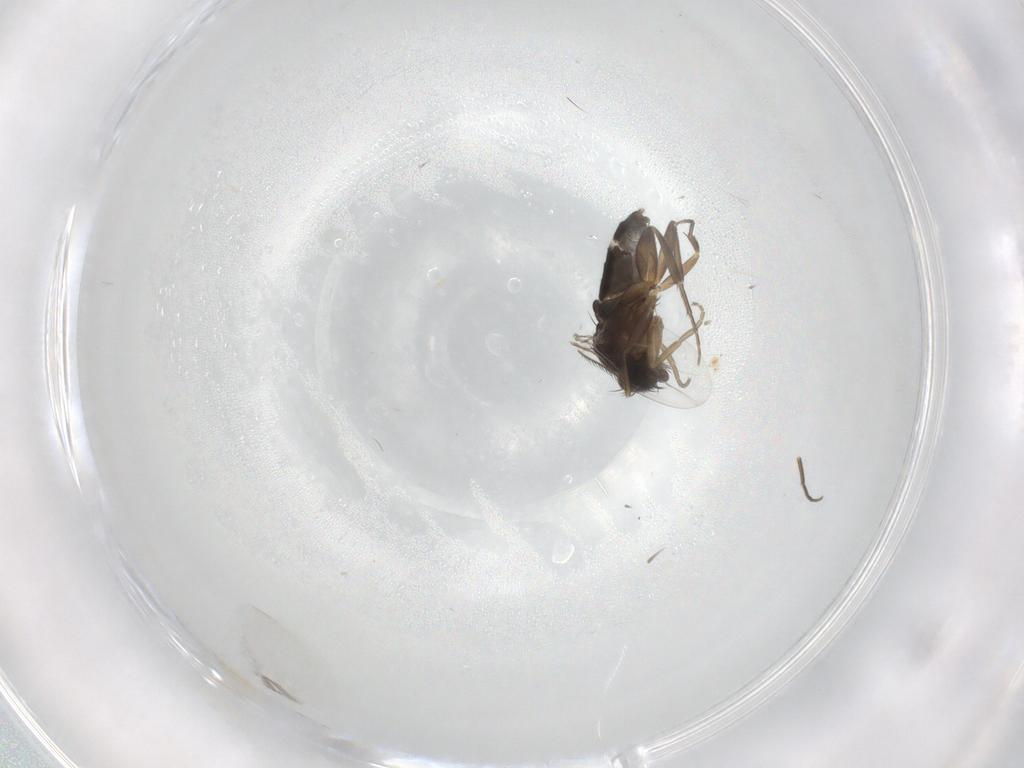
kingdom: Animalia
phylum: Arthropoda
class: Insecta
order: Diptera
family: Phoridae
